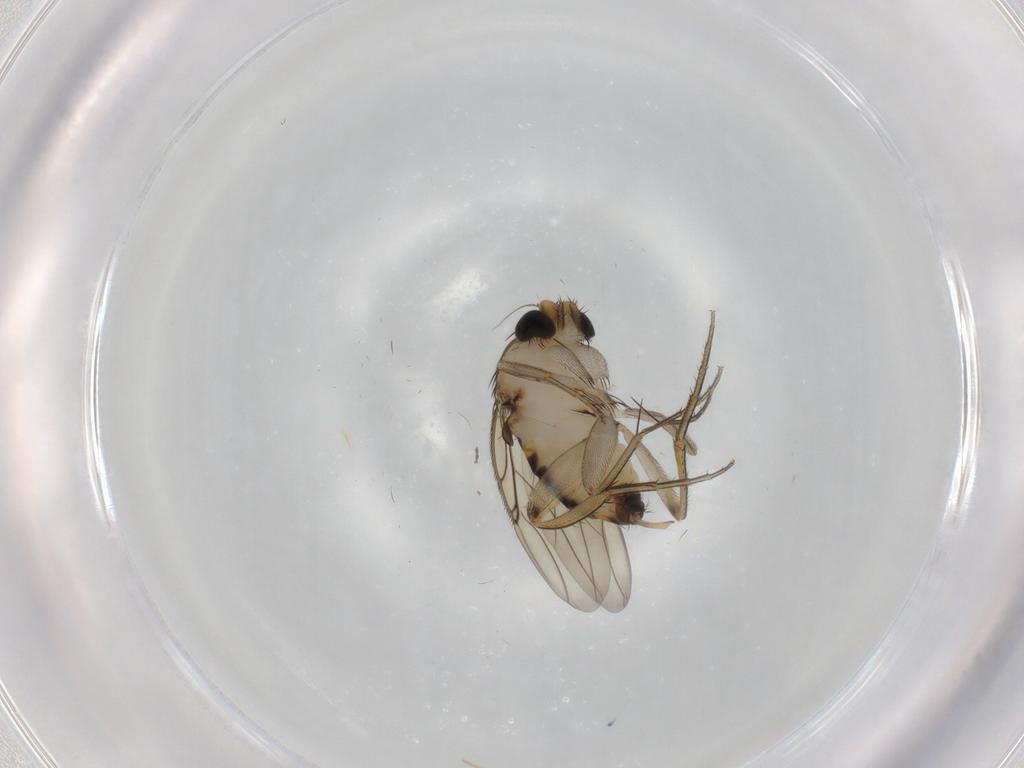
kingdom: Animalia
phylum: Arthropoda
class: Insecta
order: Diptera
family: Phoridae
